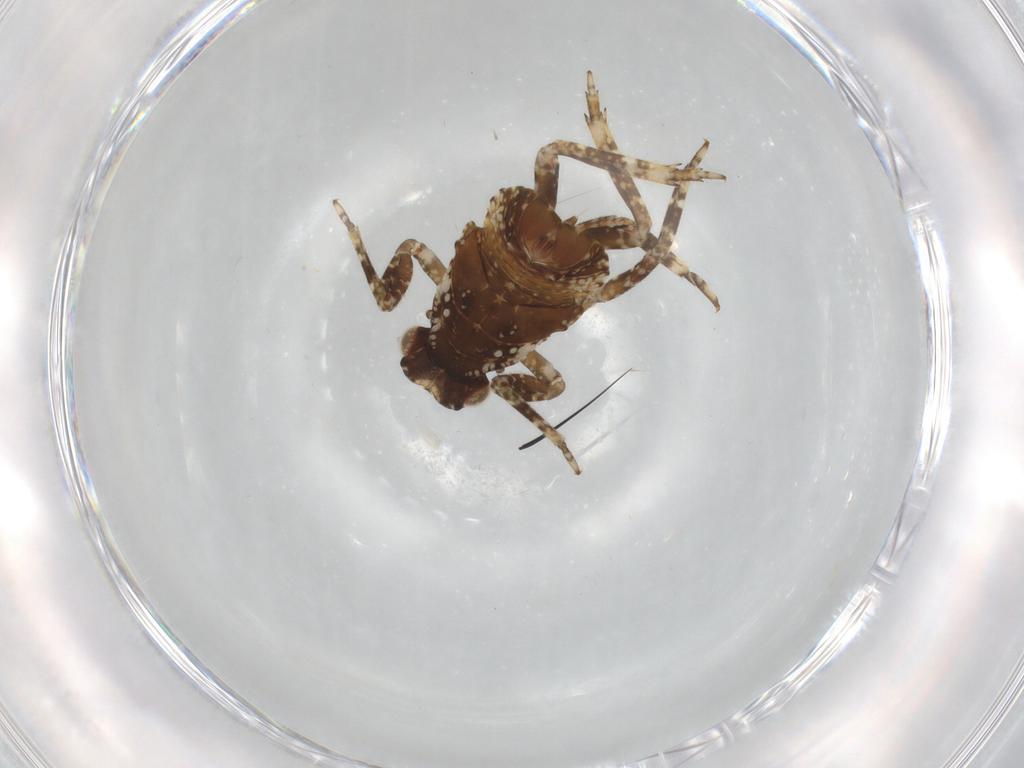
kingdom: Animalia
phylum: Arthropoda
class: Insecta
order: Hemiptera
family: Fulgoridae
